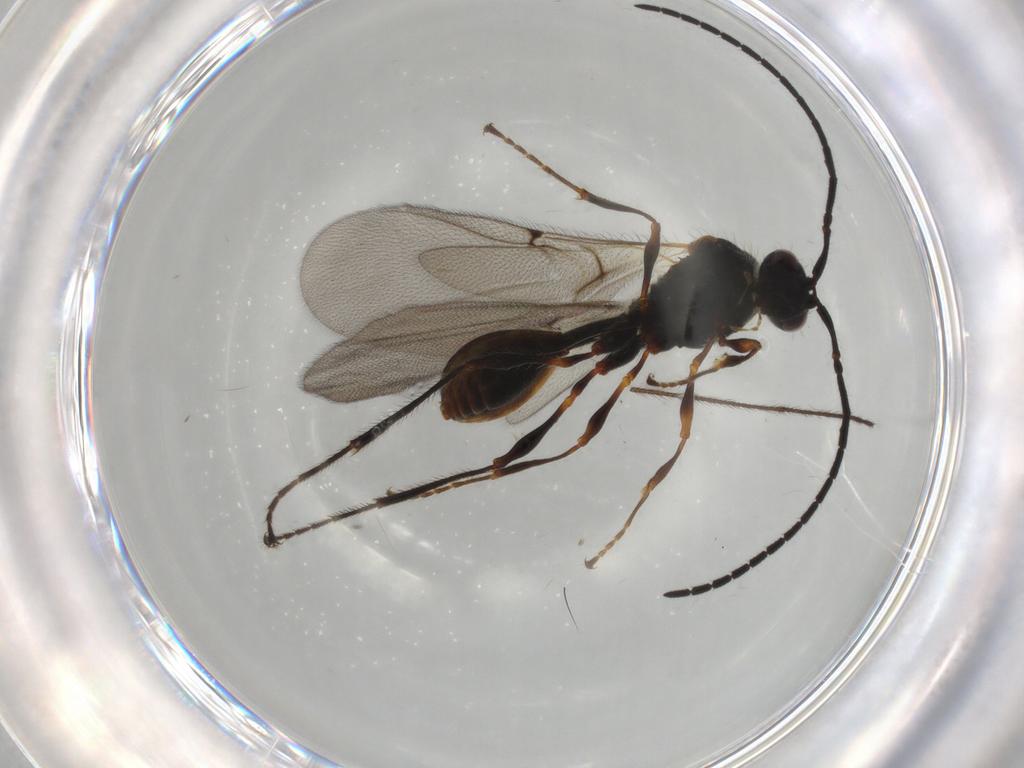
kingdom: Animalia
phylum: Arthropoda
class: Insecta
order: Hymenoptera
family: Diapriidae
